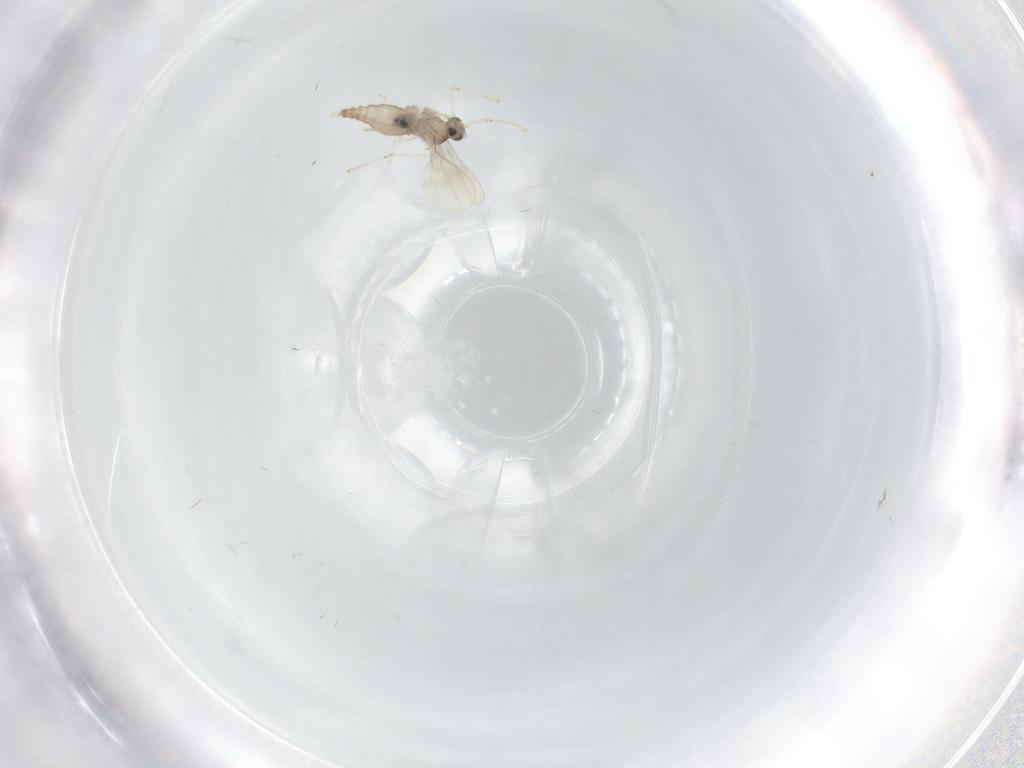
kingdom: Animalia
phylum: Arthropoda
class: Insecta
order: Diptera
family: Cecidomyiidae
